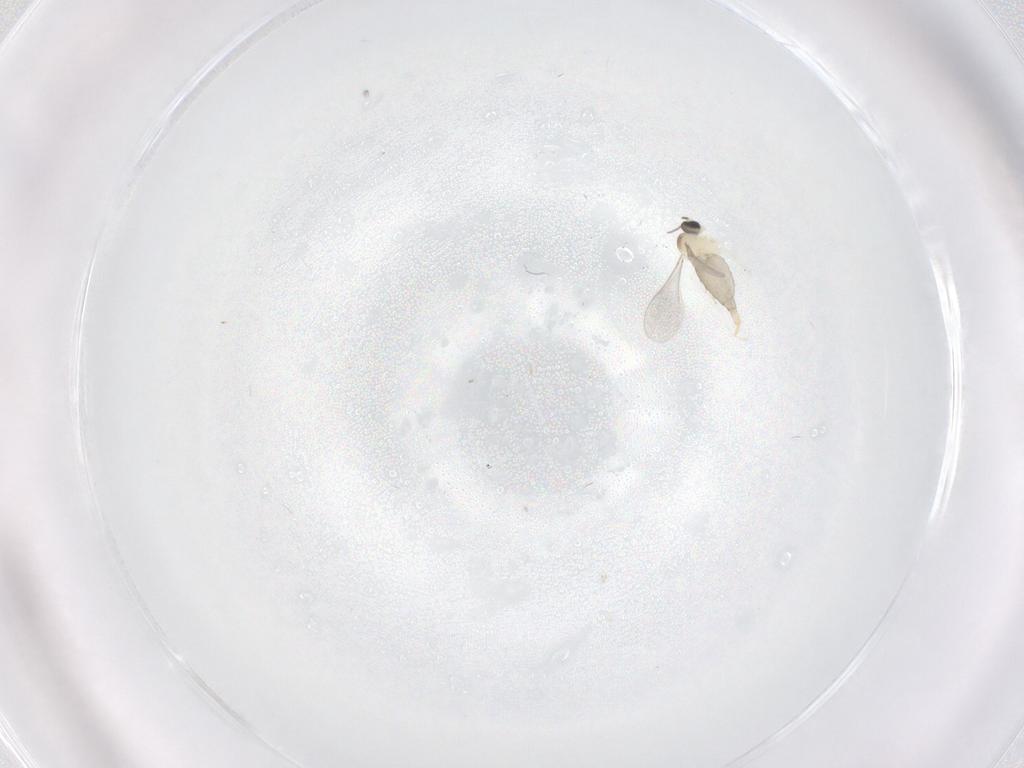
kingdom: Animalia
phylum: Arthropoda
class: Insecta
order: Diptera
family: Cecidomyiidae
